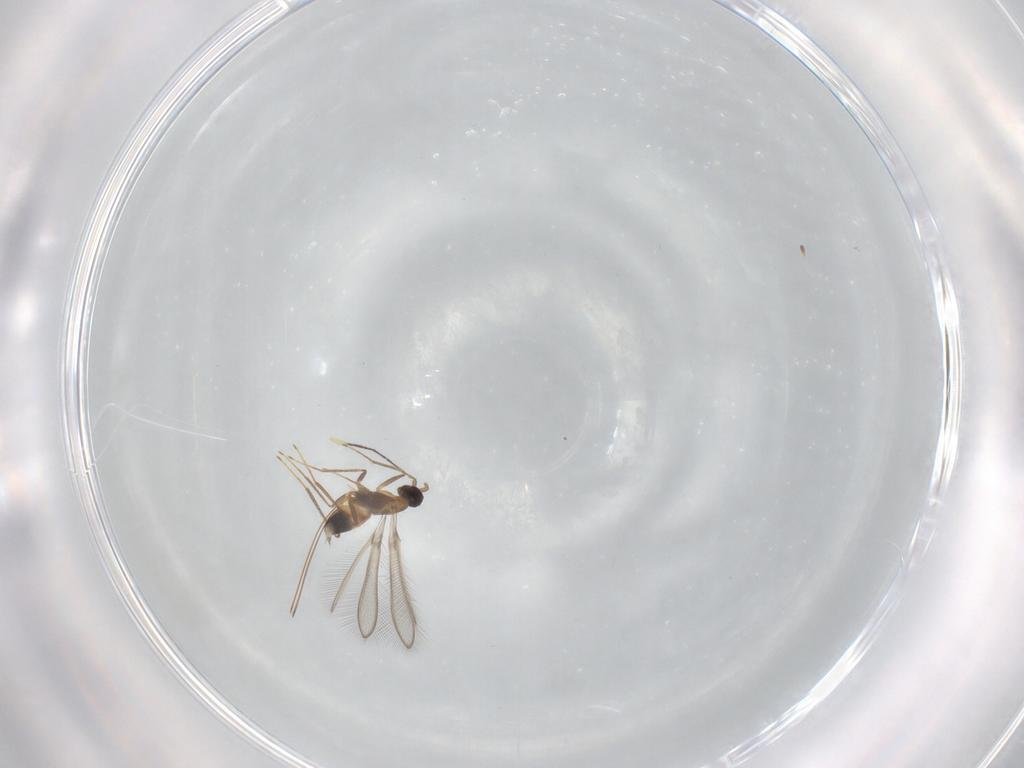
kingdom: Animalia
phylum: Arthropoda
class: Insecta
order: Hymenoptera
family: Mymaridae
